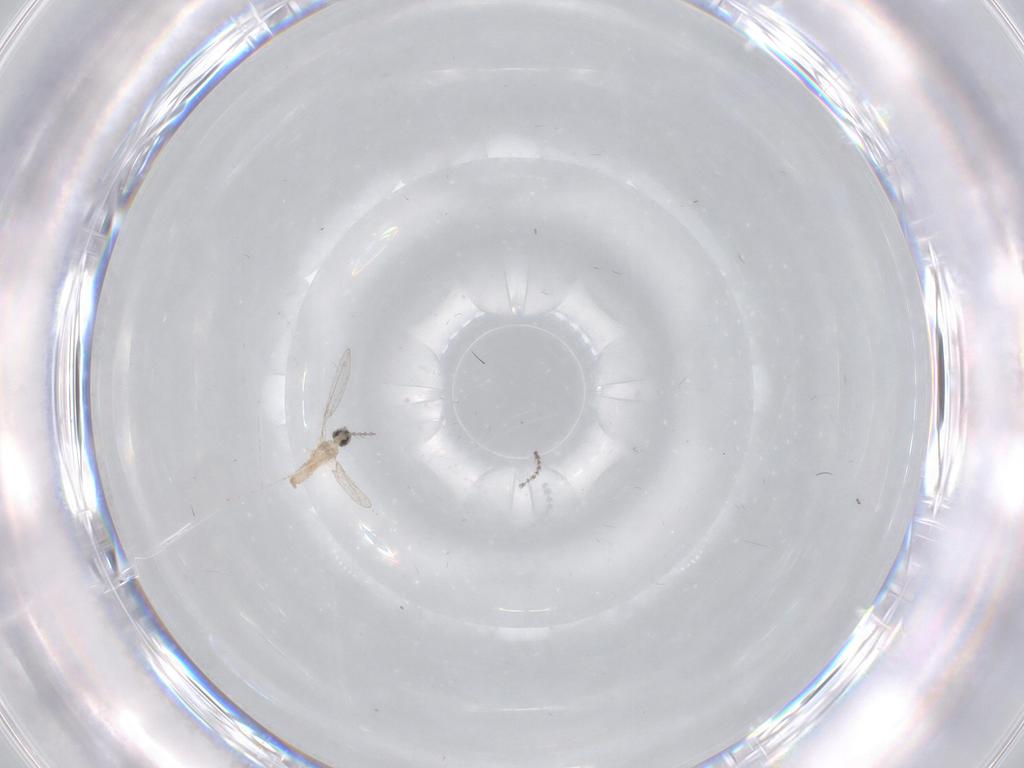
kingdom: Animalia
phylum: Arthropoda
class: Insecta
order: Diptera
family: Cecidomyiidae
